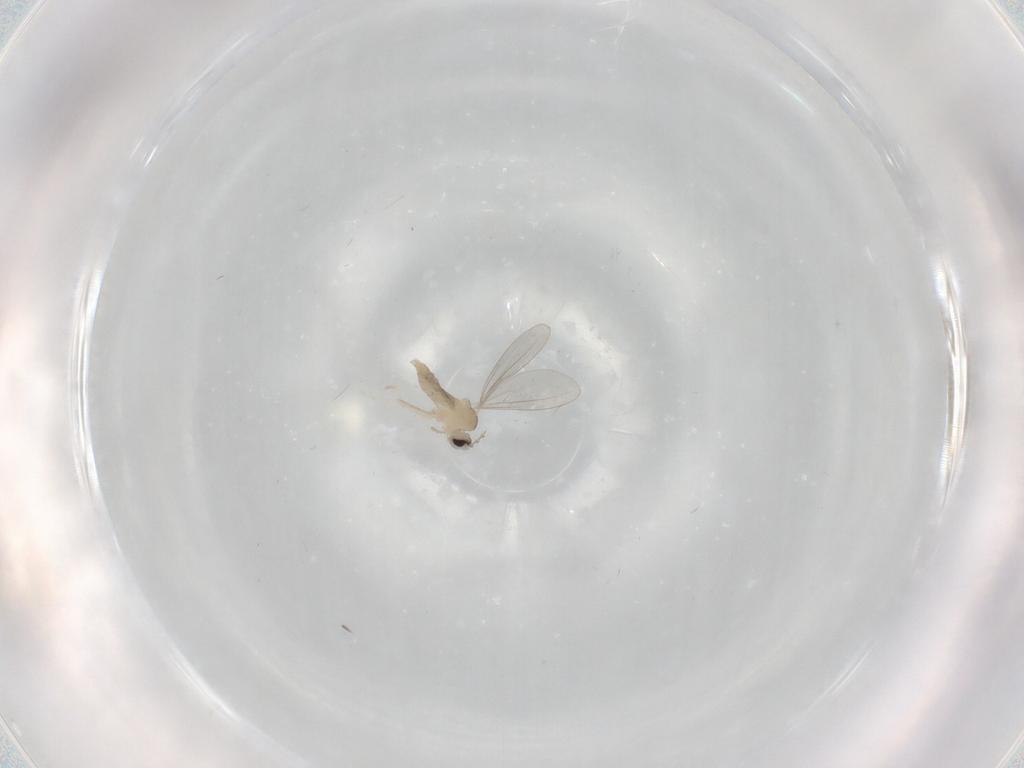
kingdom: Animalia
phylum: Arthropoda
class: Insecta
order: Diptera
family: Cecidomyiidae
